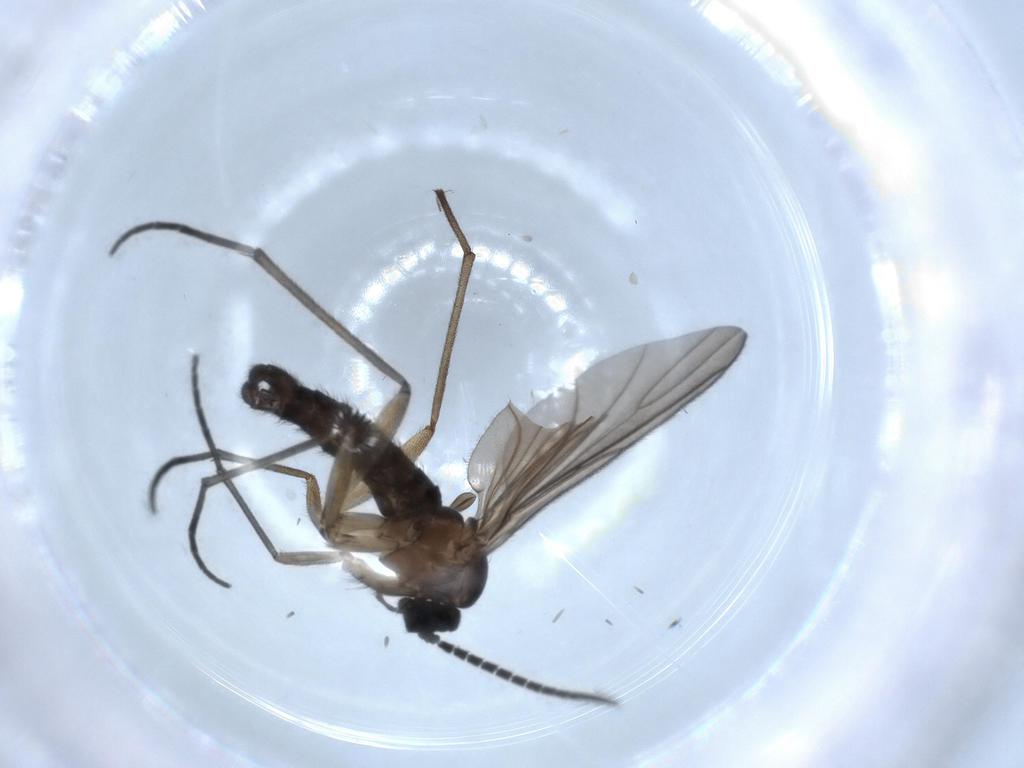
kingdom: Animalia
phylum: Arthropoda
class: Insecta
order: Diptera
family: Sciaridae
